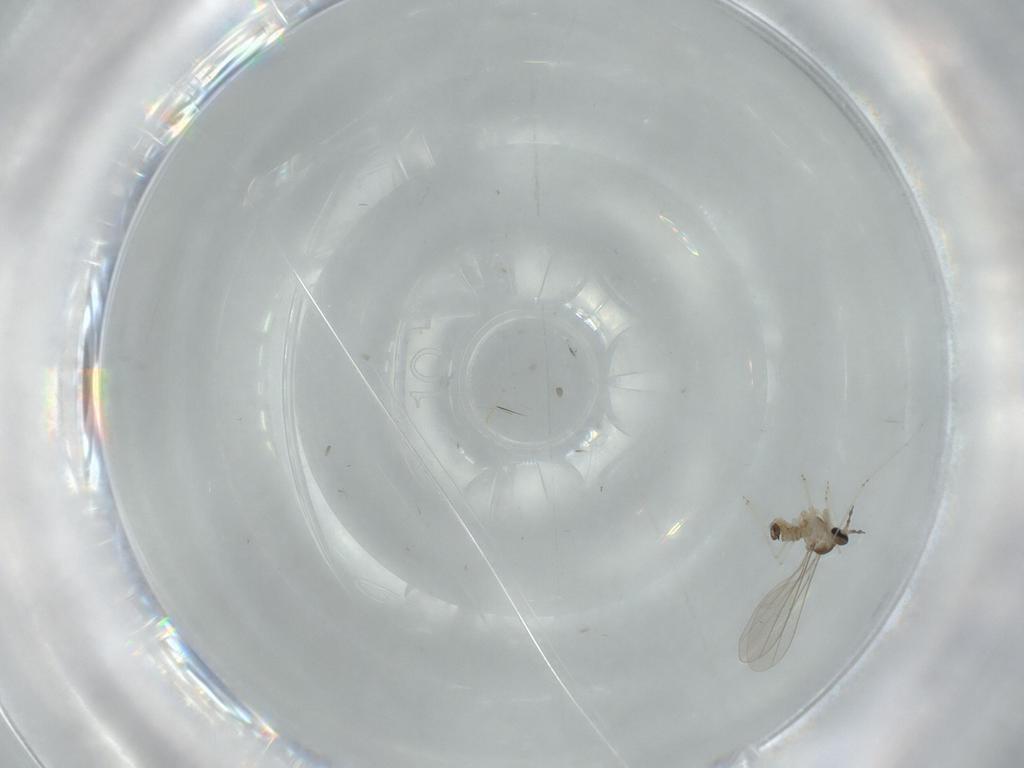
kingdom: Animalia
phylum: Arthropoda
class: Insecta
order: Diptera
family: Cecidomyiidae
